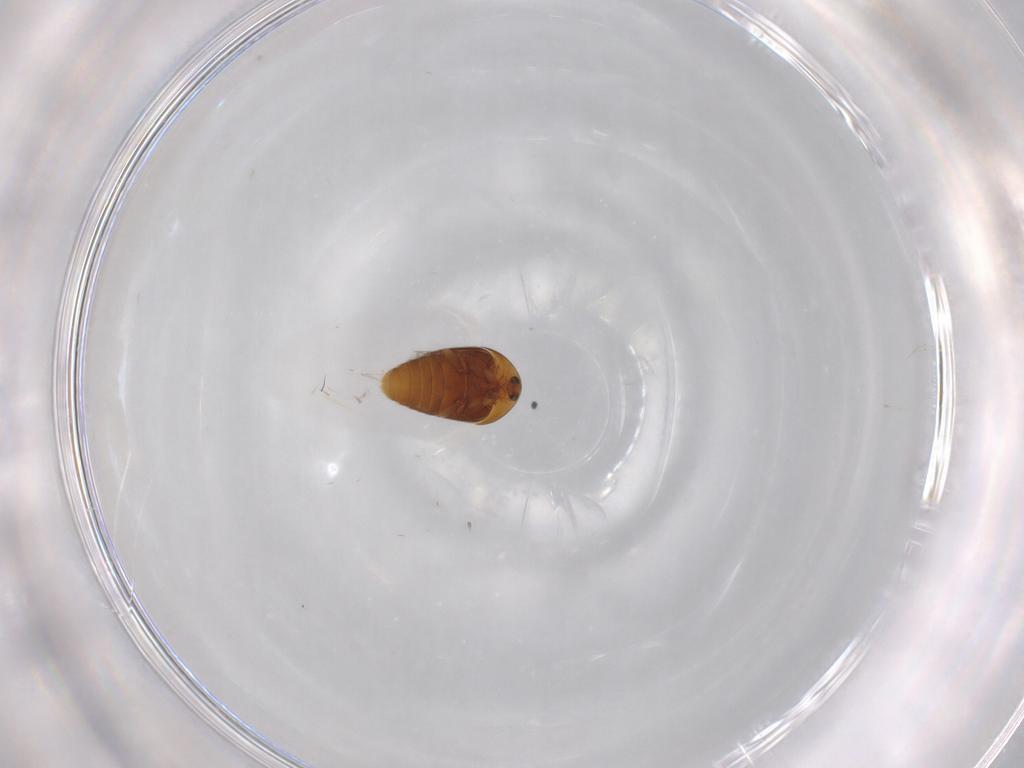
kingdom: Animalia
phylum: Arthropoda
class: Insecta
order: Coleoptera
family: Corylophidae
